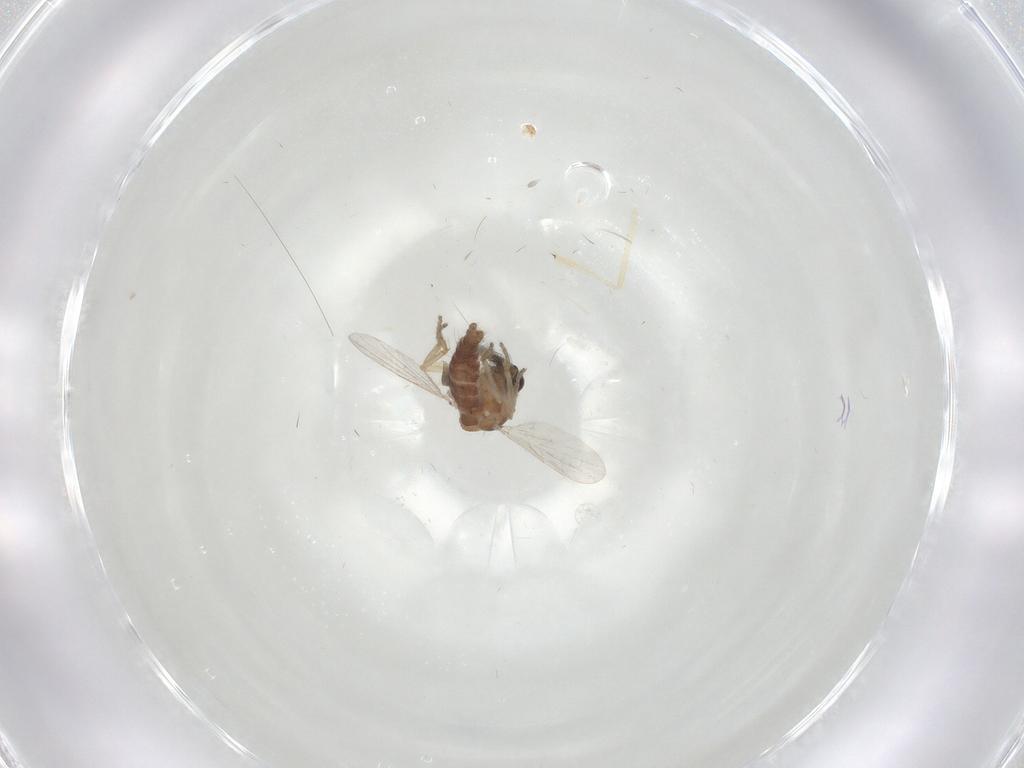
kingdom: Animalia
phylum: Arthropoda
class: Insecta
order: Diptera
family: Ceratopogonidae
